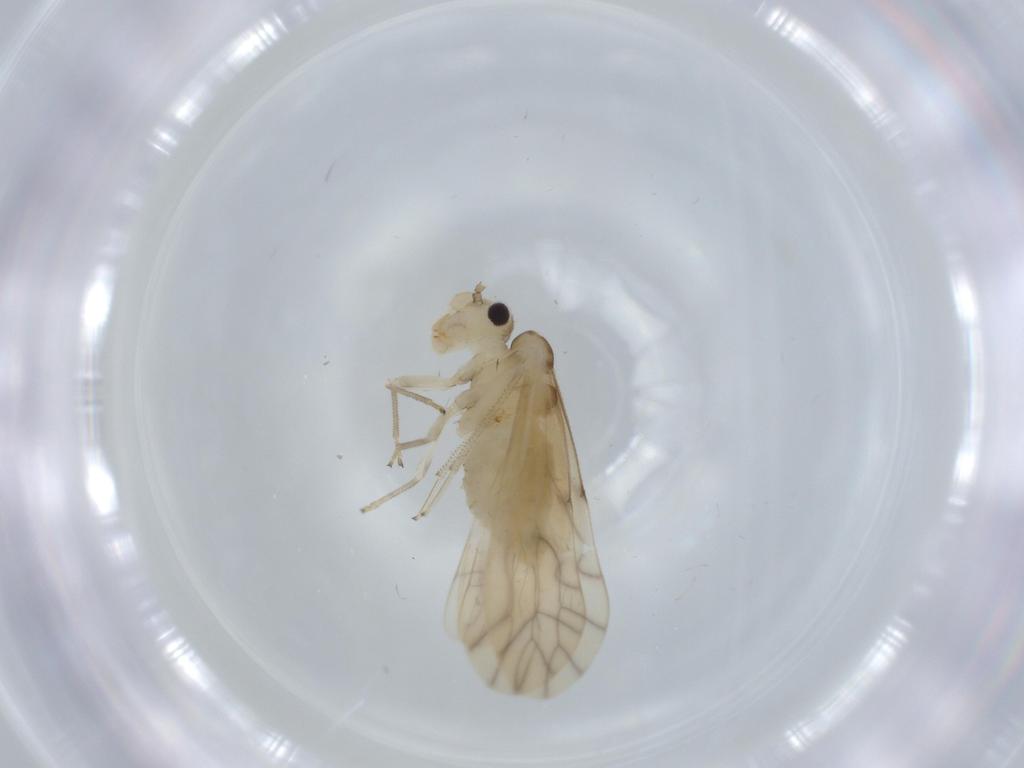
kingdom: Animalia
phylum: Arthropoda
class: Insecta
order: Psocodea
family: Caeciliusidae
